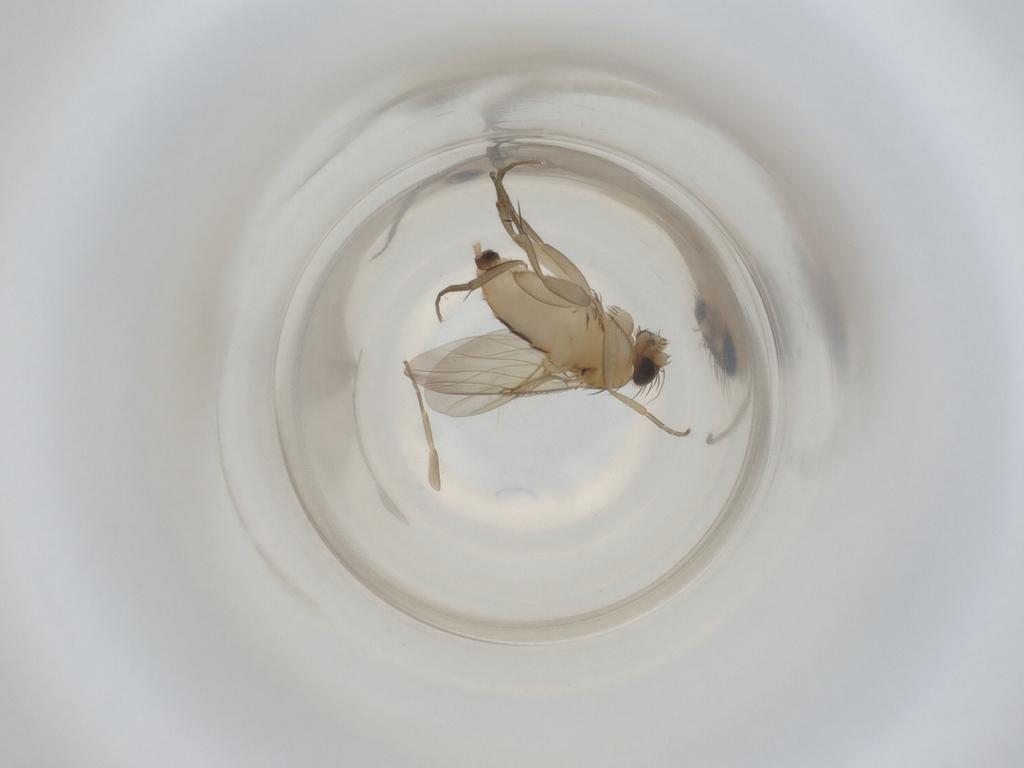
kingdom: Animalia
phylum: Arthropoda
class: Insecta
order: Diptera
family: Phoridae
